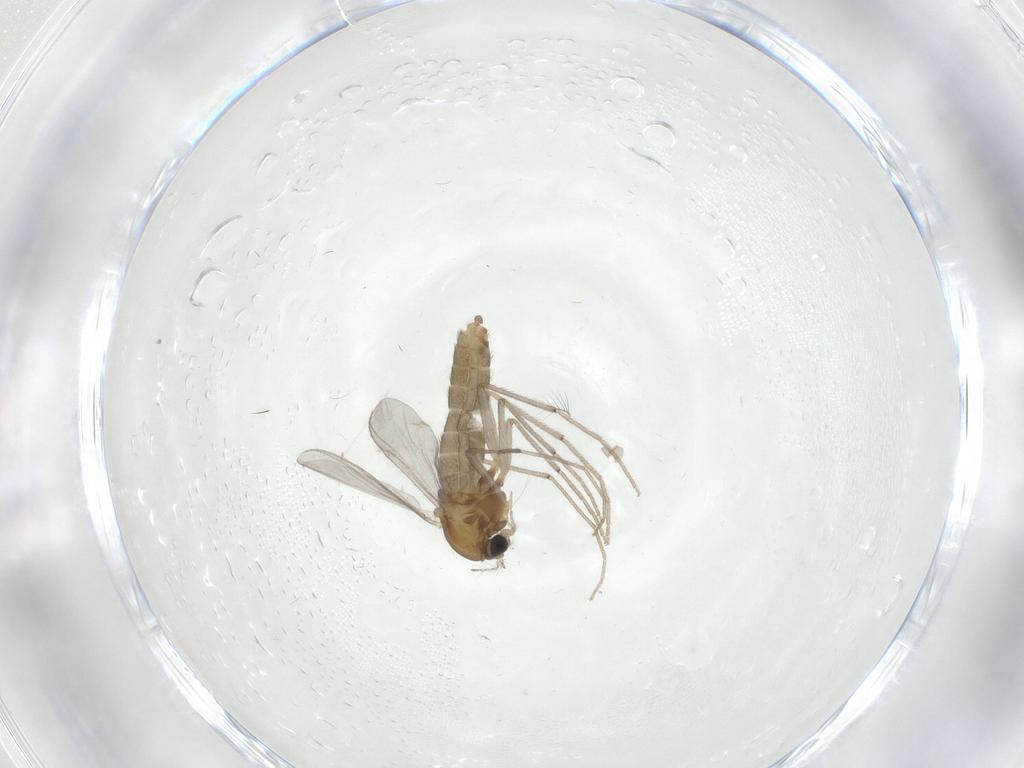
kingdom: Animalia
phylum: Arthropoda
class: Insecta
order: Diptera
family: Chironomidae
